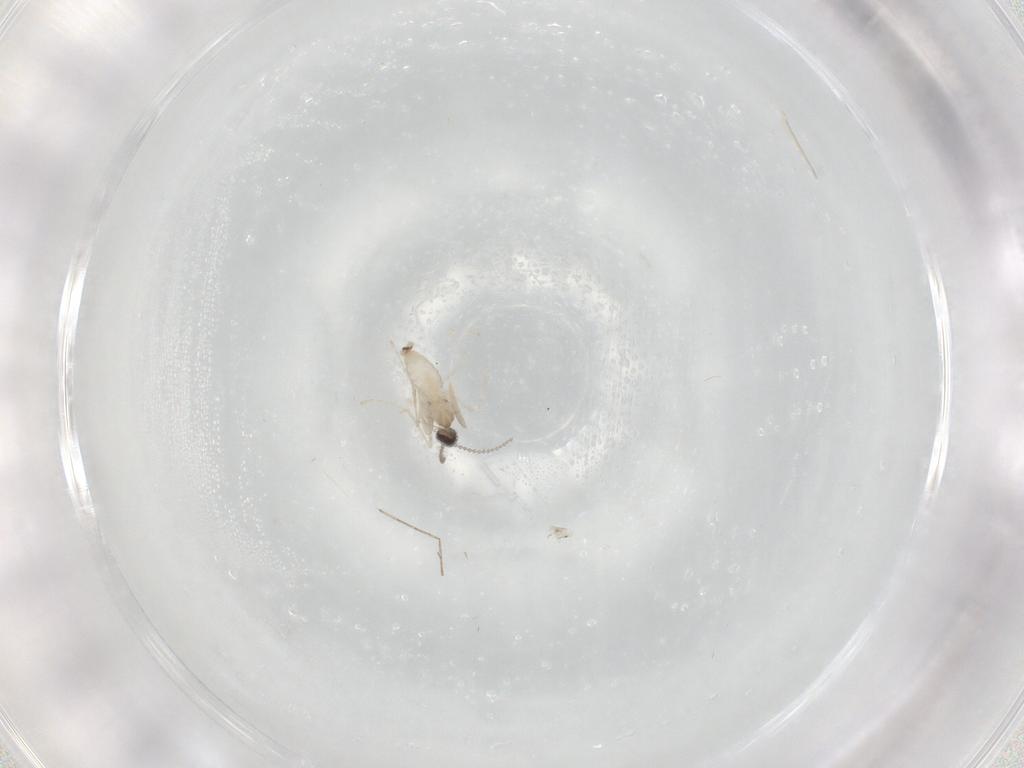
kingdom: Animalia
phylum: Arthropoda
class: Insecta
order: Diptera
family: Cecidomyiidae
